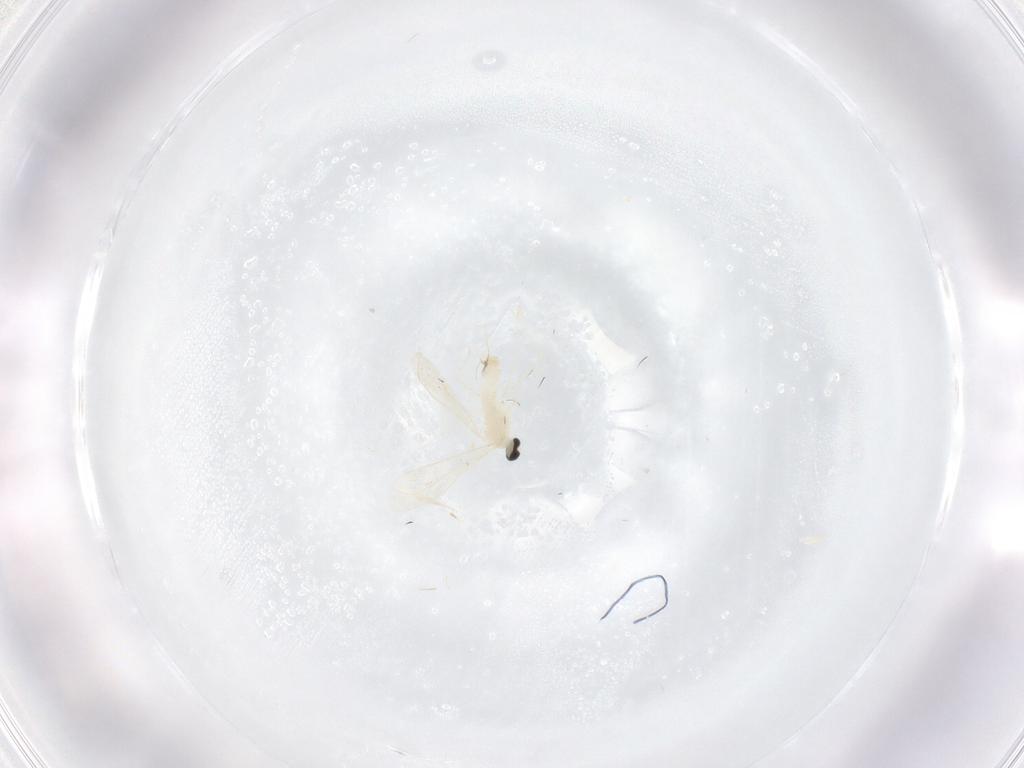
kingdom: Animalia
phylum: Arthropoda
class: Insecta
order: Diptera
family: Cecidomyiidae
